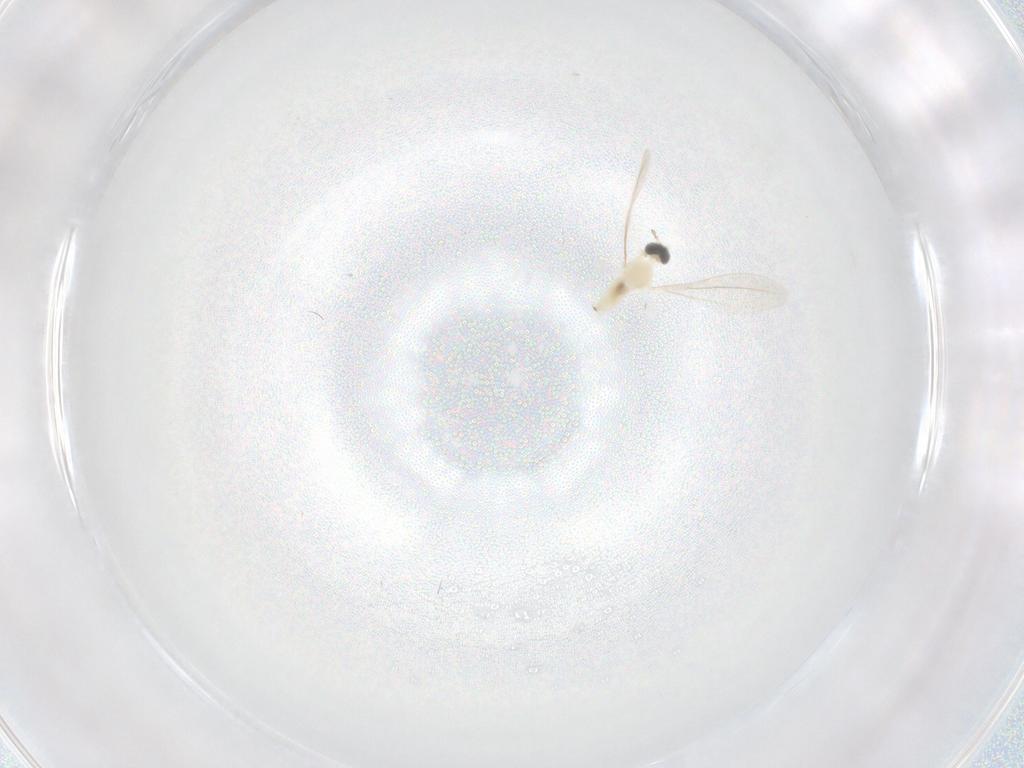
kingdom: Animalia
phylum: Arthropoda
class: Insecta
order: Diptera
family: Cecidomyiidae
